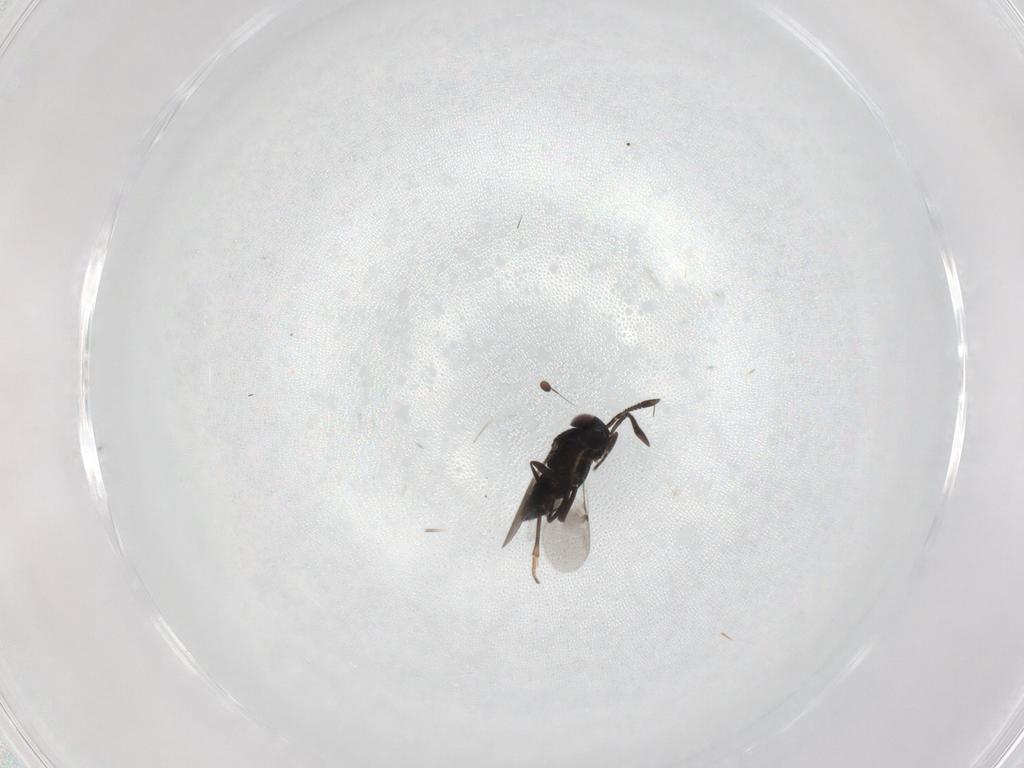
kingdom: Animalia
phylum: Arthropoda
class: Insecta
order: Hymenoptera
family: Encyrtidae
